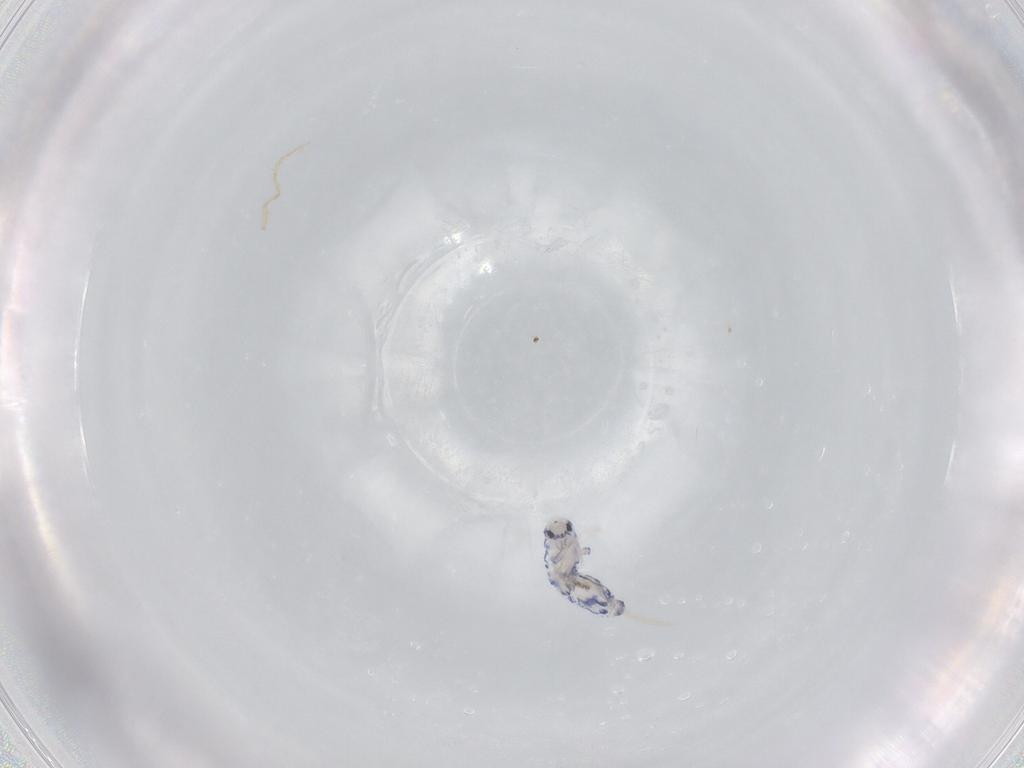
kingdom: Animalia
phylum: Arthropoda
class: Collembola
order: Entomobryomorpha
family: Entomobryidae
